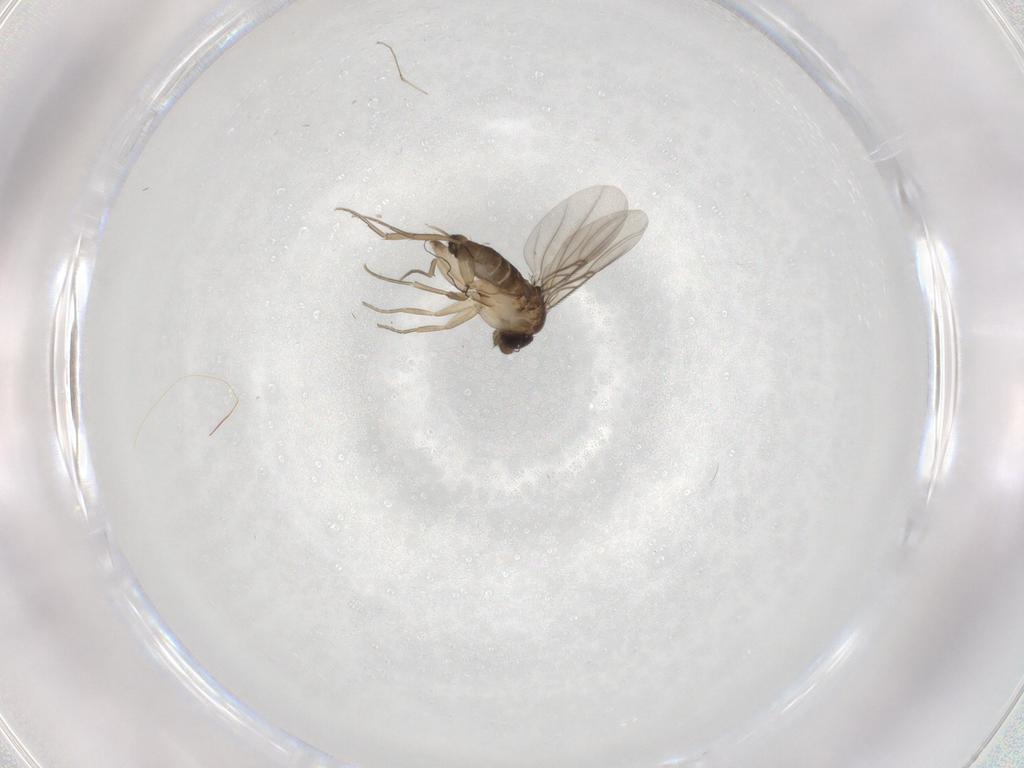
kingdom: Animalia
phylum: Arthropoda
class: Insecta
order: Diptera
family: Phoridae
